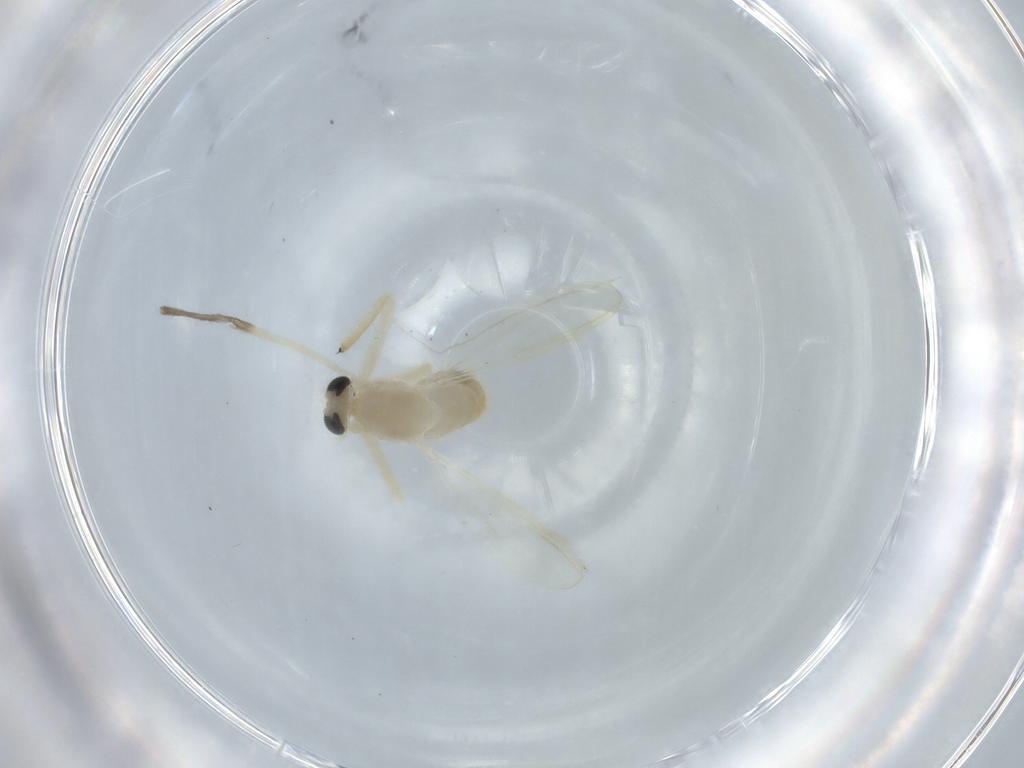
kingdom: Animalia
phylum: Arthropoda
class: Insecta
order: Diptera
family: Chironomidae
